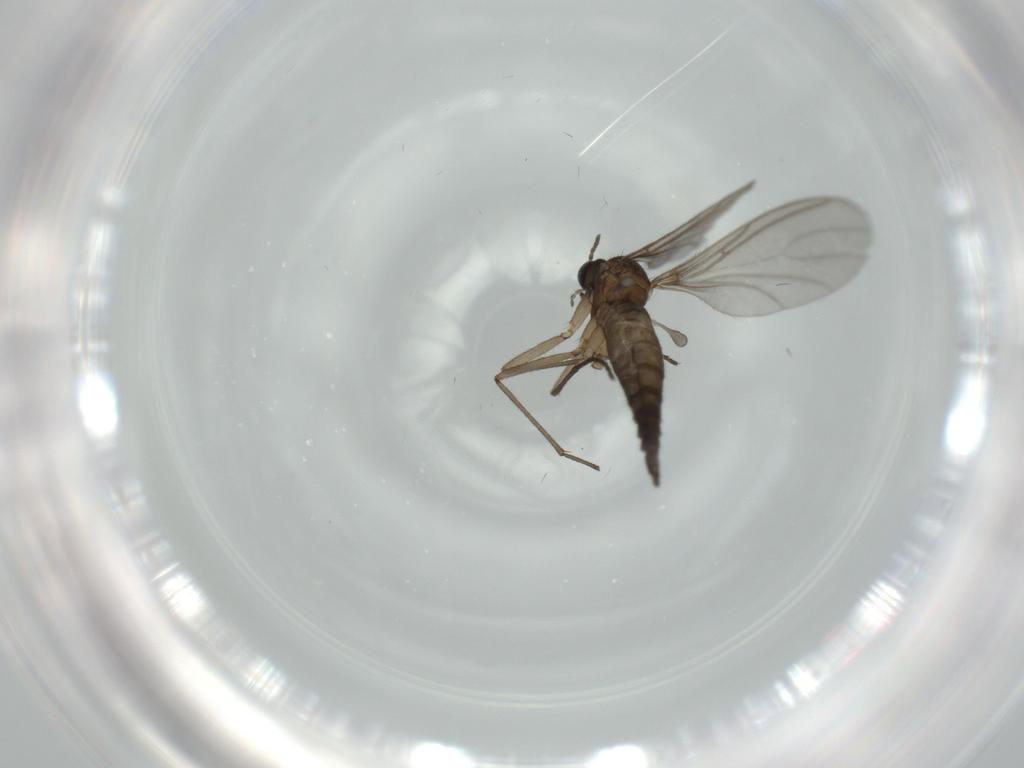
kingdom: Animalia
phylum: Arthropoda
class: Insecta
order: Diptera
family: Sciaridae
